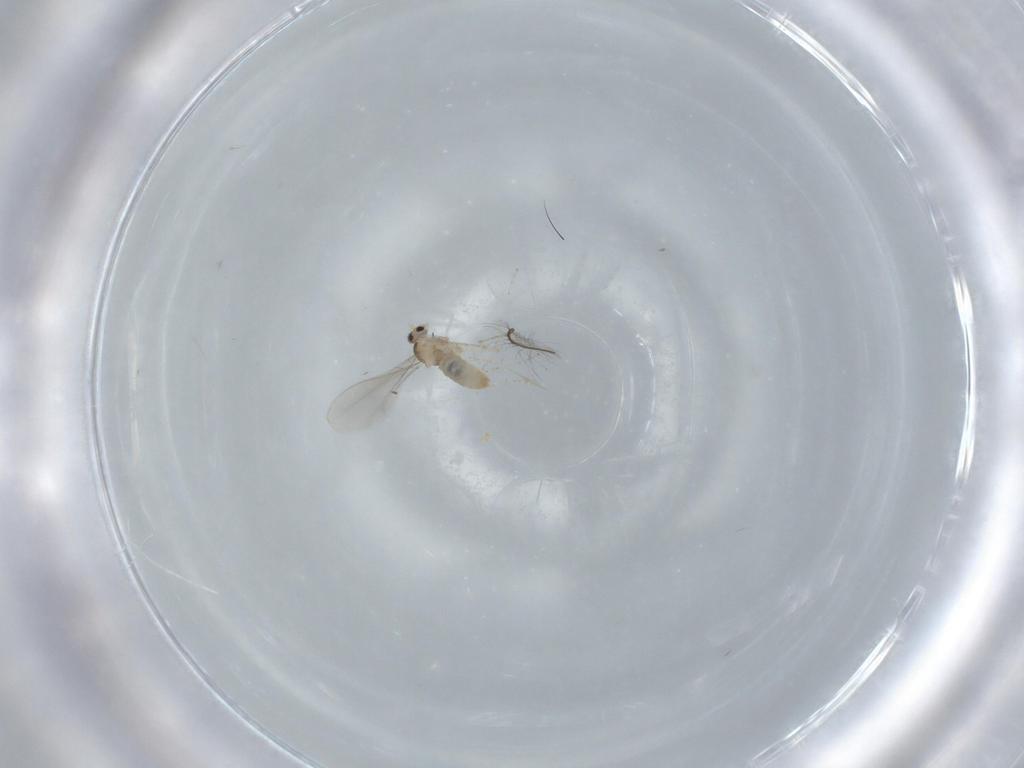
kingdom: Animalia
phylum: Arthropoda
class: Insecta
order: Diptera
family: Cecidomyiidae
